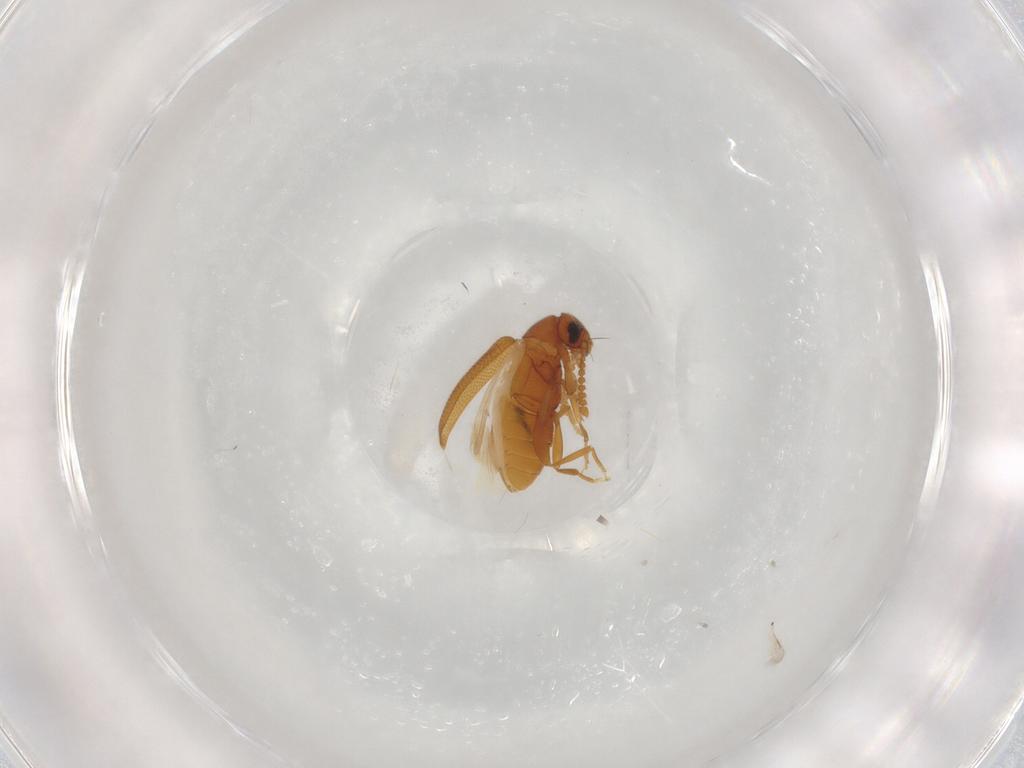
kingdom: Animalia
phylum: Arthropoda
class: Insecta
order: Coleoptera
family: Aderidae
